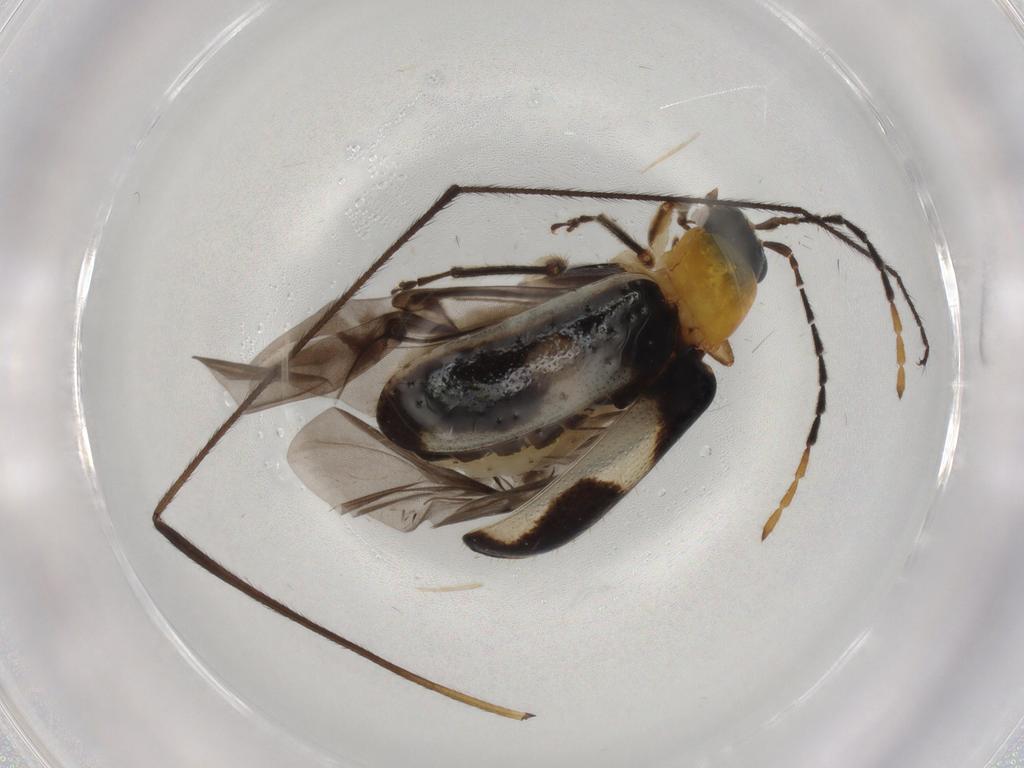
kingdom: Animalia
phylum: Arthropoda
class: Insecta
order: Coleoptera
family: Chrysomelidae
